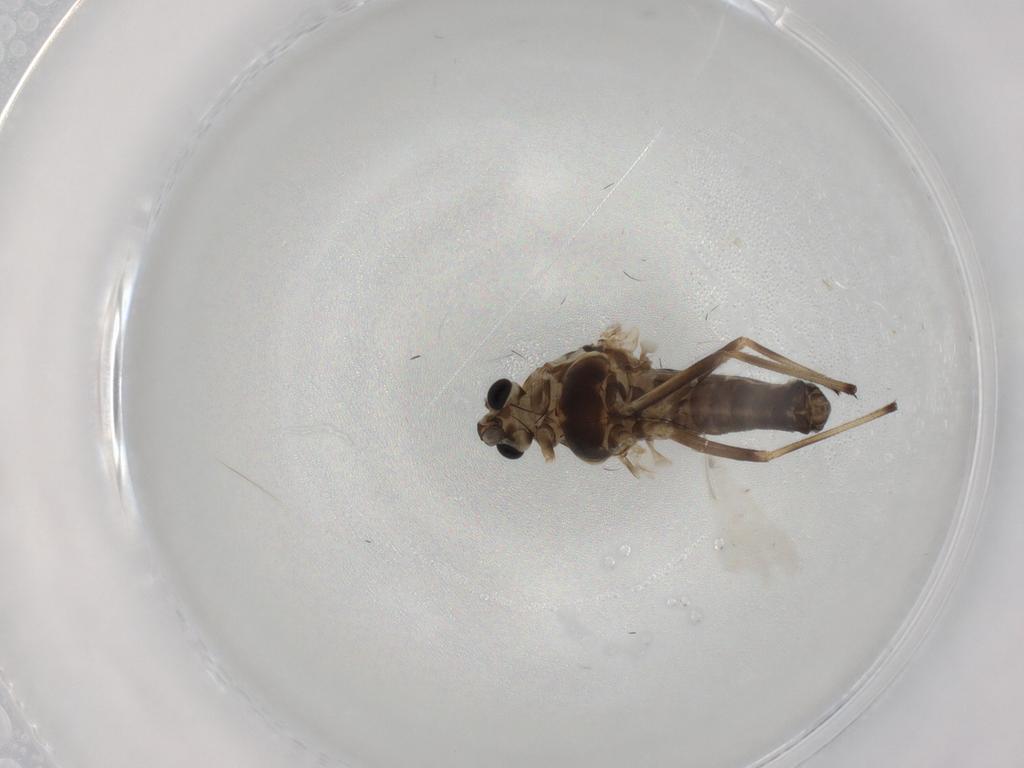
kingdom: Animalia
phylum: Arthropoda
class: Insecta
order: Diptera
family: Chironomidae
